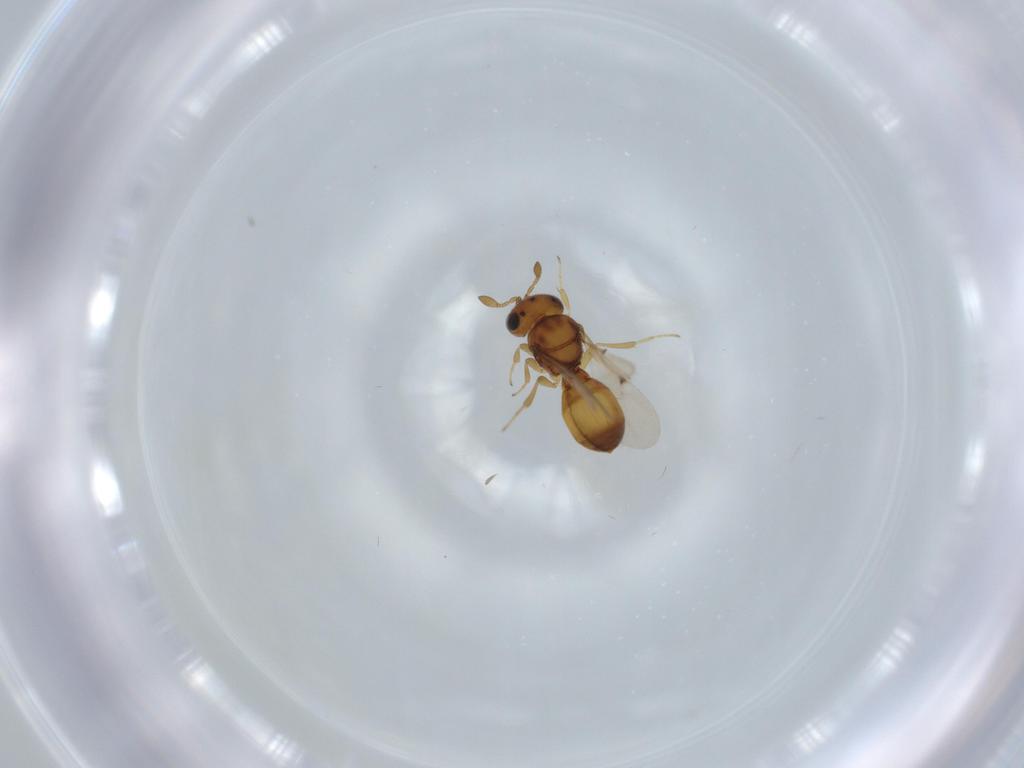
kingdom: Animalia
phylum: Arthropoda
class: Insecta
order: Hymenoptera
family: Scelionidae
